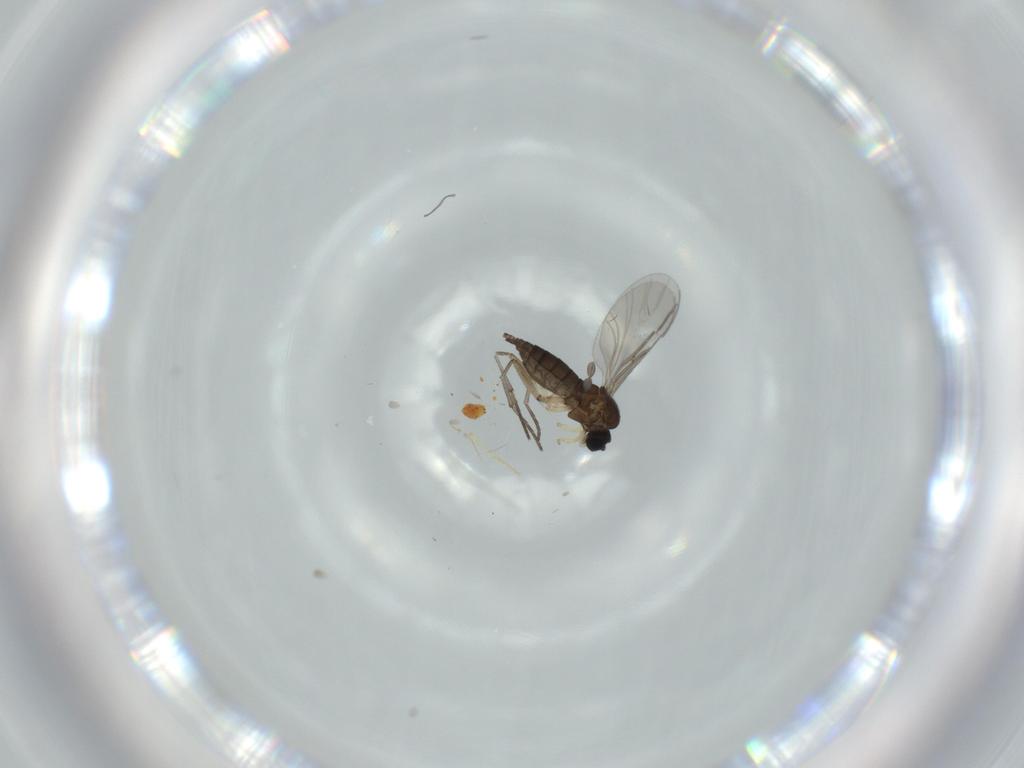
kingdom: Animalia
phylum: Arthropoda
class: Insecta
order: Diptera
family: Sciaridae
